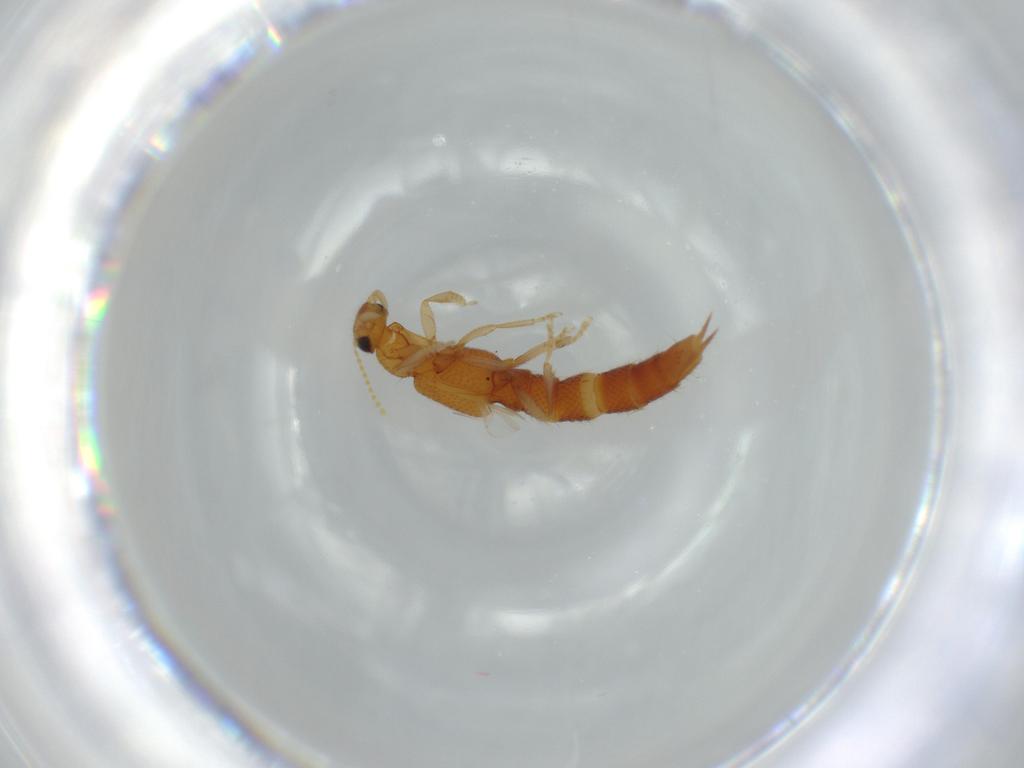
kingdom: Animalia
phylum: Arthropoda
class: Insecta
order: Coleoptera
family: Staphylinidae
